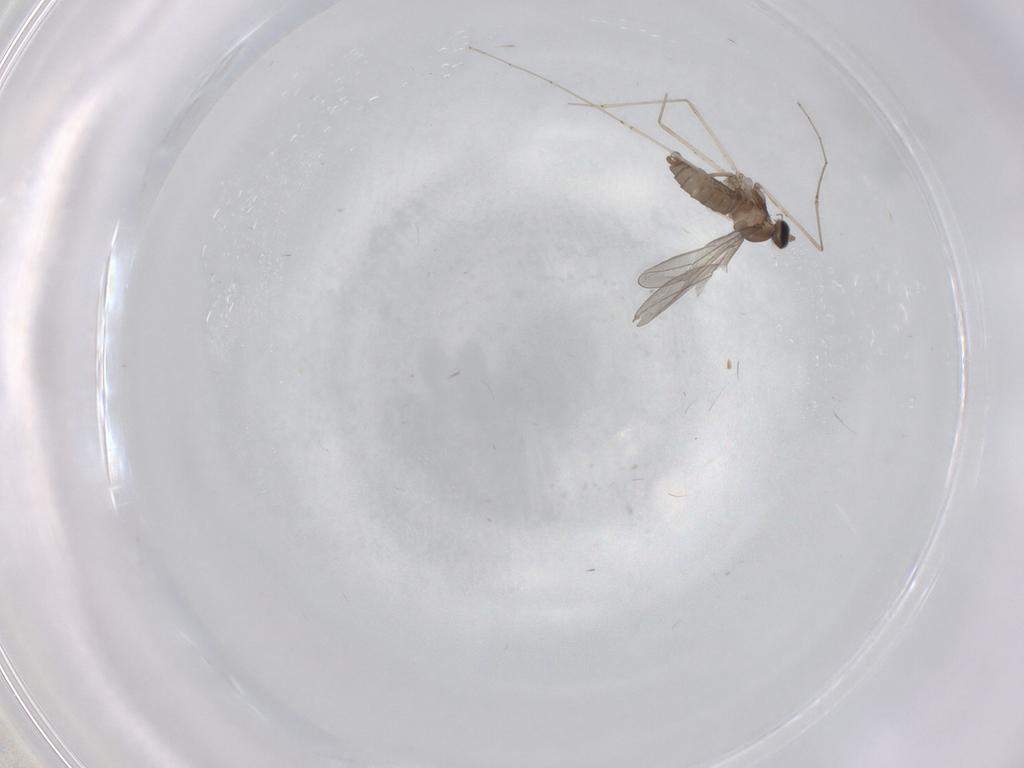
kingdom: Animalia
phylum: Arthropoda
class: Insecta
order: Diptera
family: Cecidomyiidae
